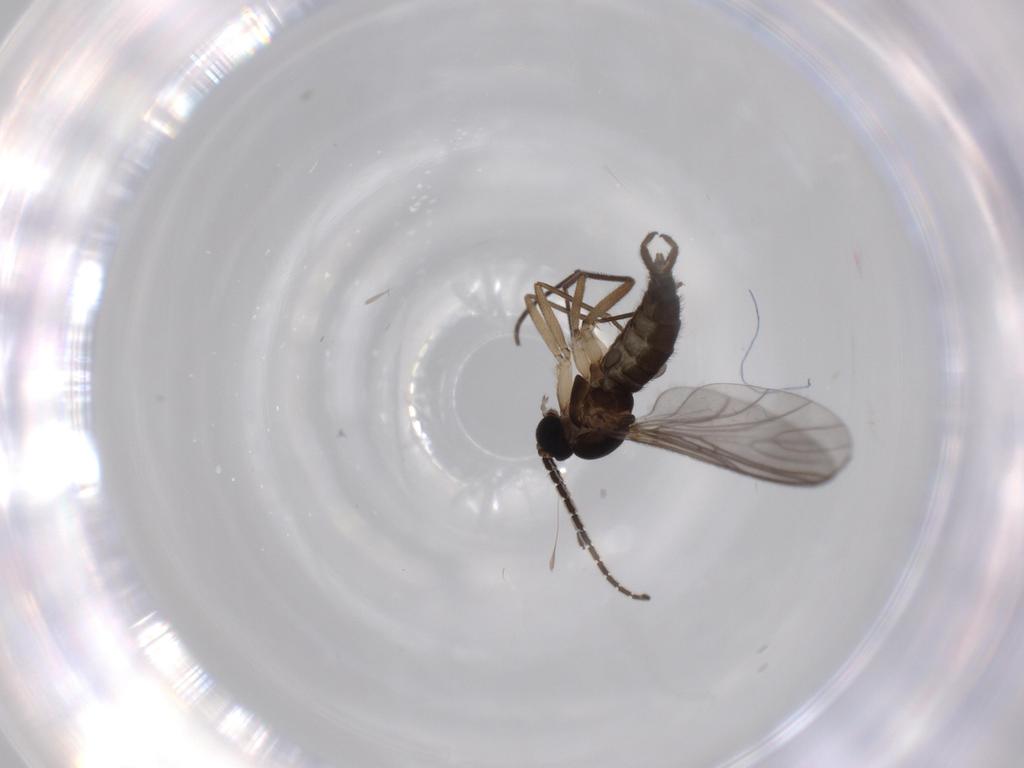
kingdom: Animalia
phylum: Arthropoda
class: Insecta
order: Diptera
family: Sciaridae
